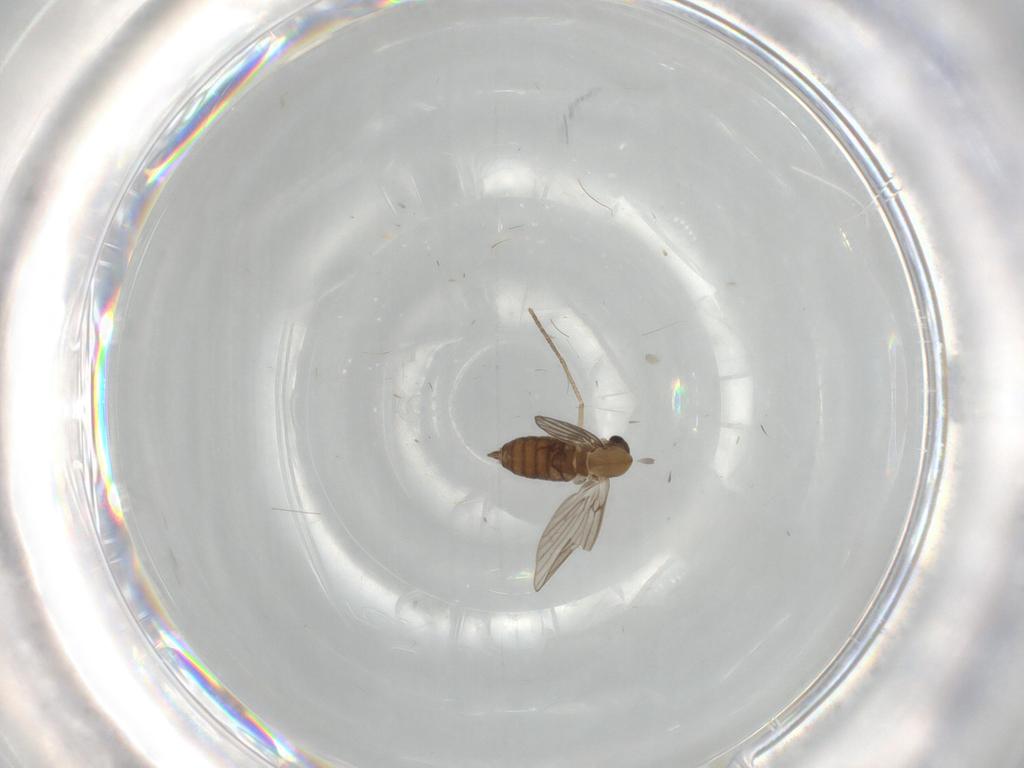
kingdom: Animalia
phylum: Arthropoda
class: Insecta
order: Diptera
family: Psychodidae
